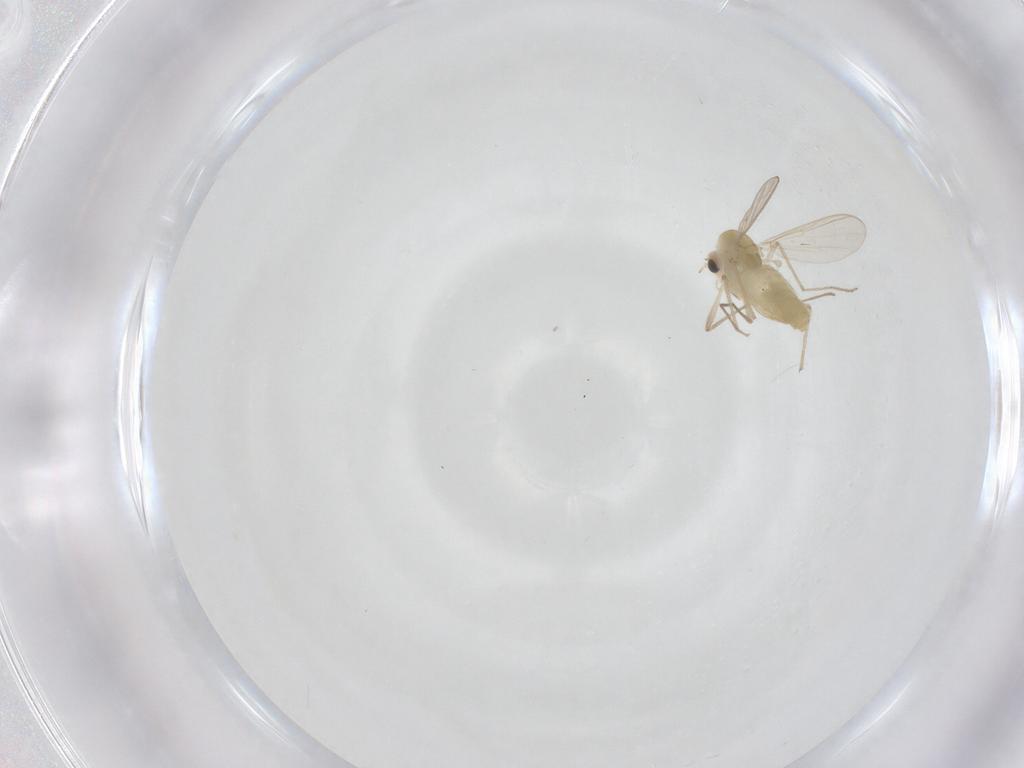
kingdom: Animalia
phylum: Arthropoda
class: Insecta
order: Diptera
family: Chironomidae
